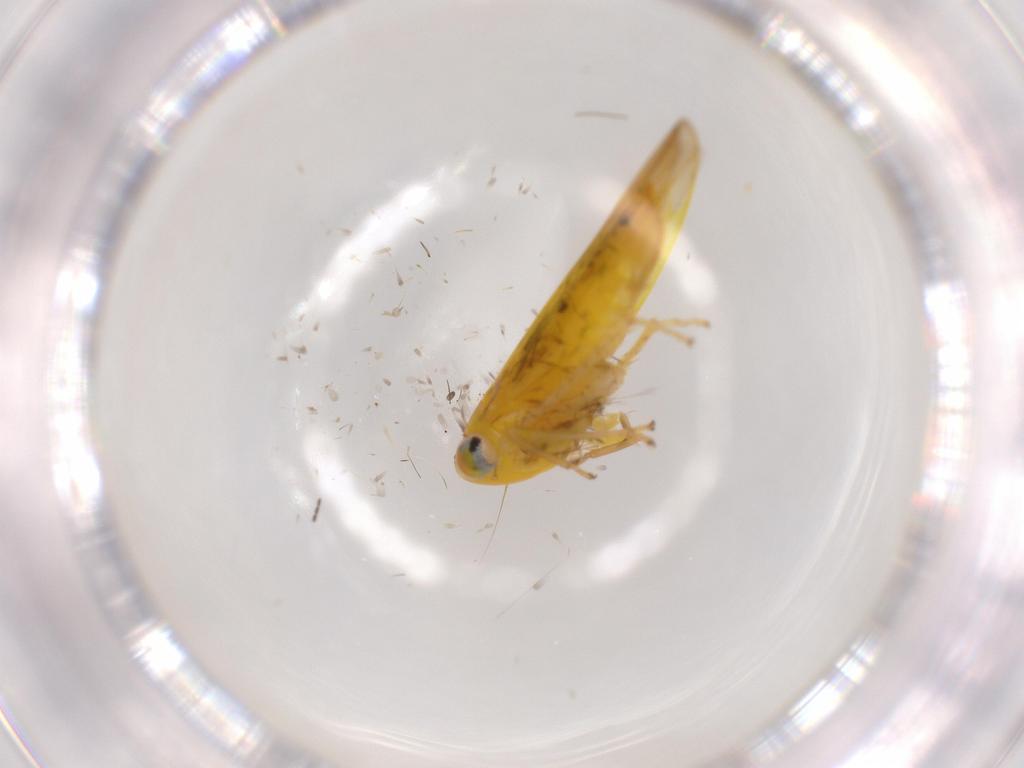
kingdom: Animalia
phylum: Arthropoda
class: Insecta
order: Hemiptera
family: Cicadellidae
